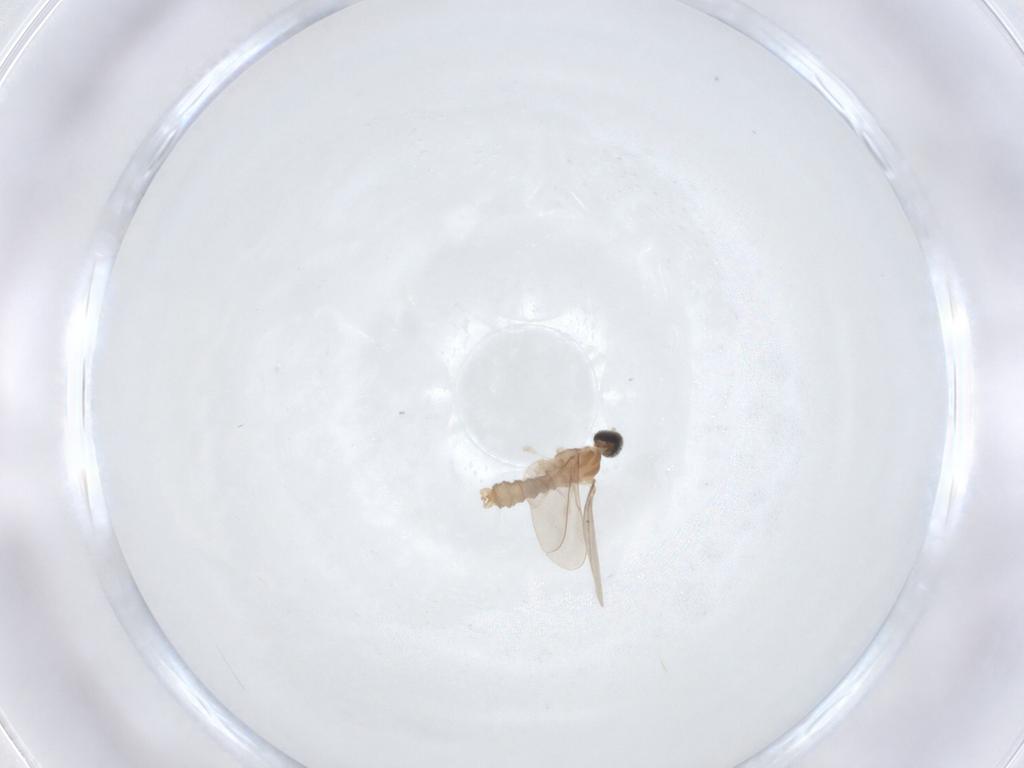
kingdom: Animalia
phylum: Arthropoda
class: Insecta
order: Diptera
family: Cecidomyiidae
